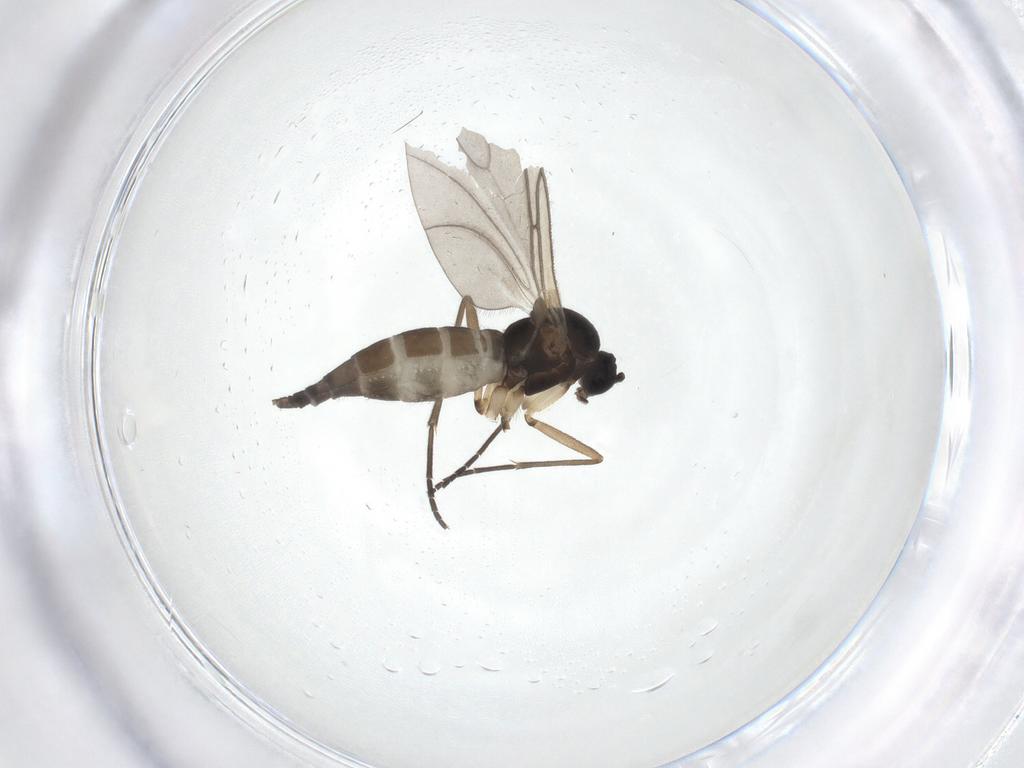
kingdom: Animalia
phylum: Arthropoda
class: Insecta
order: Diptera
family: Sciaridae
